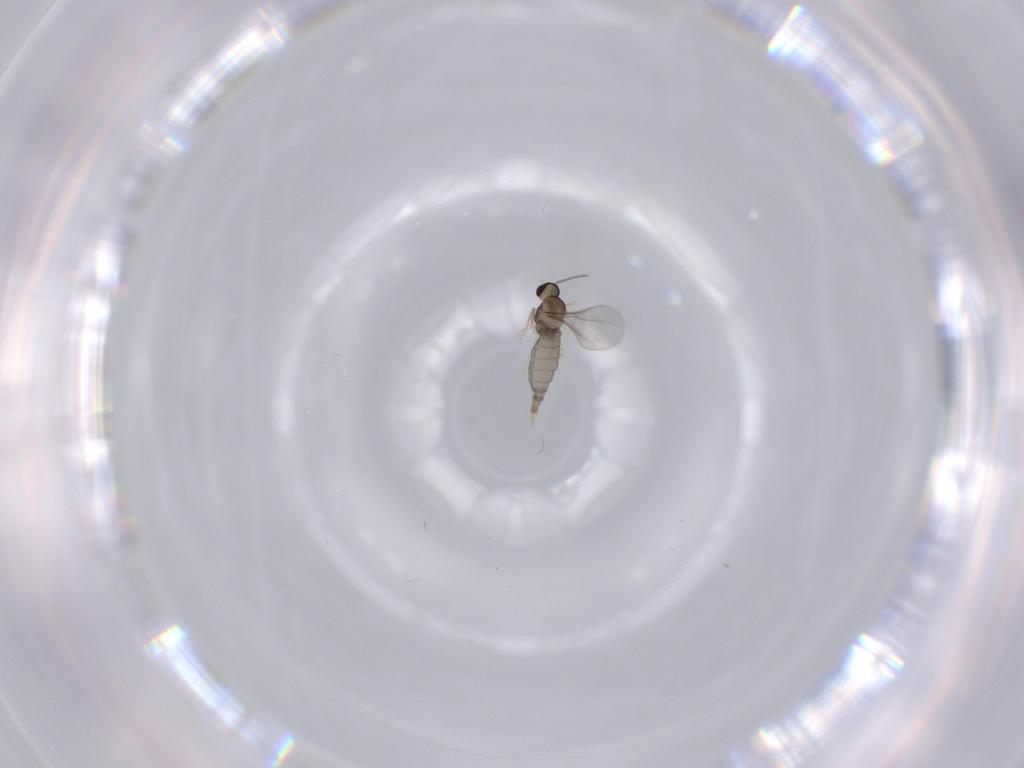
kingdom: Animalia
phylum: Arthropoda
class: Insecta
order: Diptera
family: Cecidomyiidae
